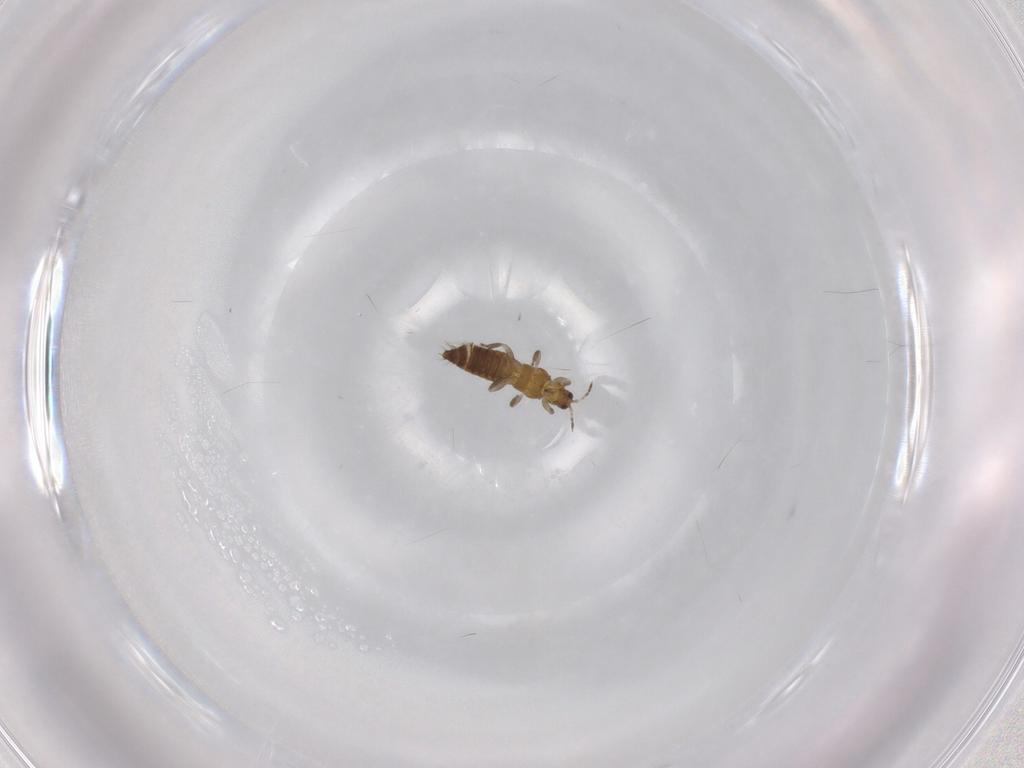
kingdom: Animalia
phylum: Arthropoda
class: Insecta
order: Thysanoptera
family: Thripidae
